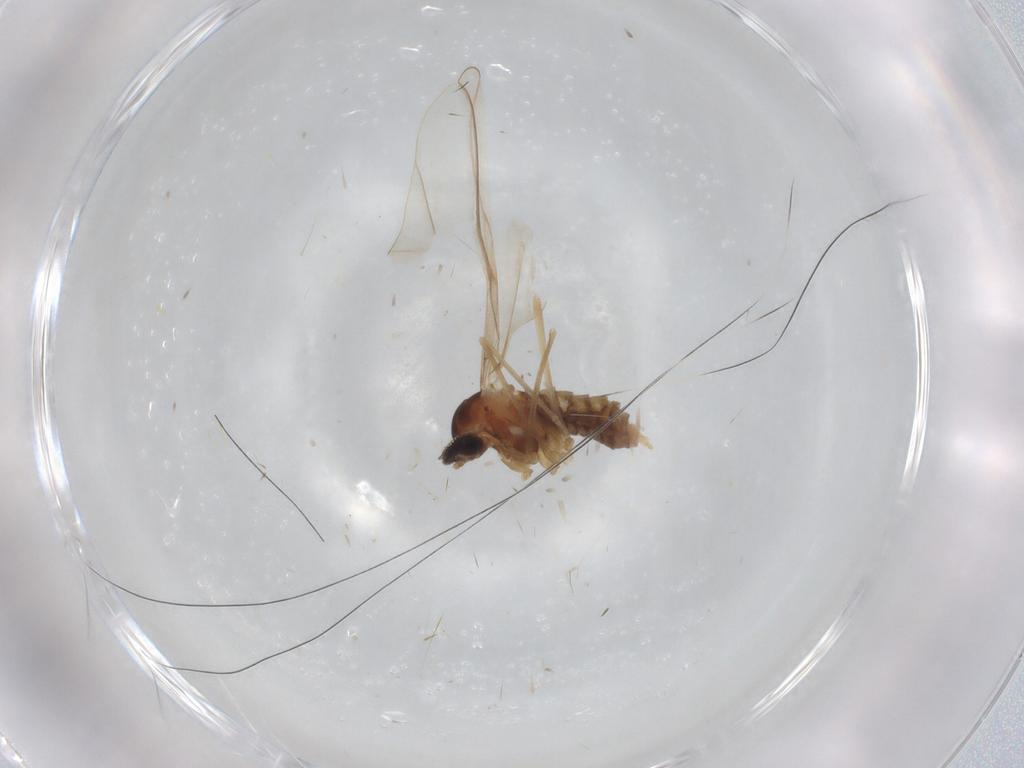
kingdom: Animalia
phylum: Arthropoda
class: Insecta
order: Diptera
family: Cecidomyiidae
